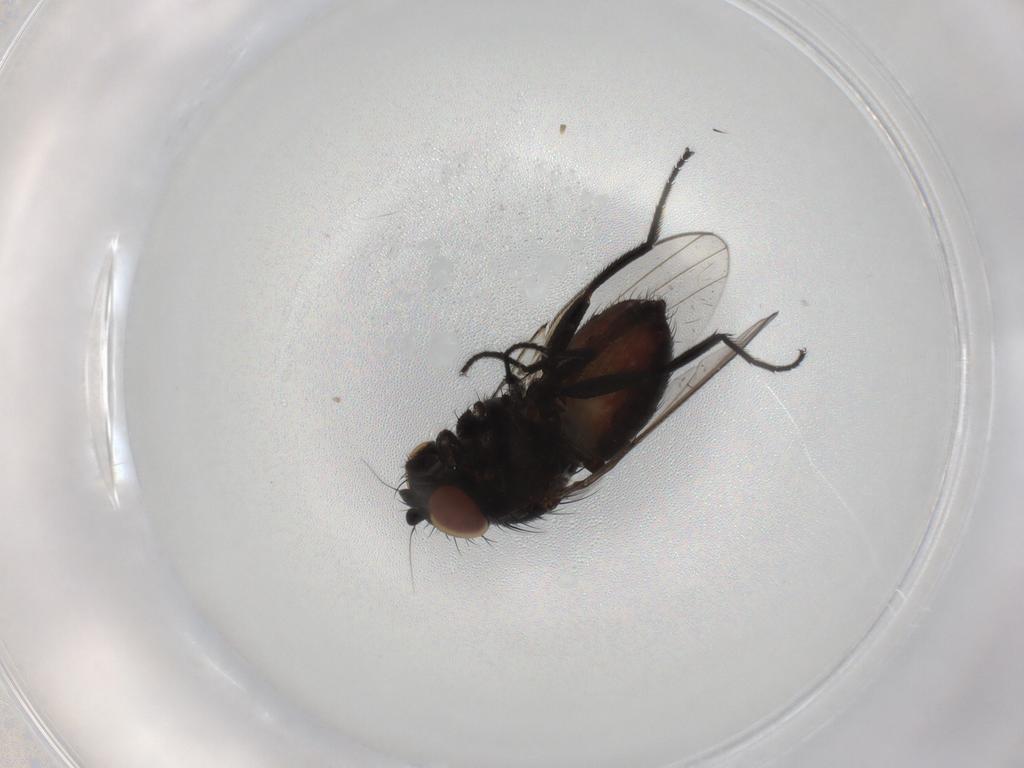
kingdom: Animalia
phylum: Arthropoda
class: Insecta
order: Diptera
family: Milichiidae
